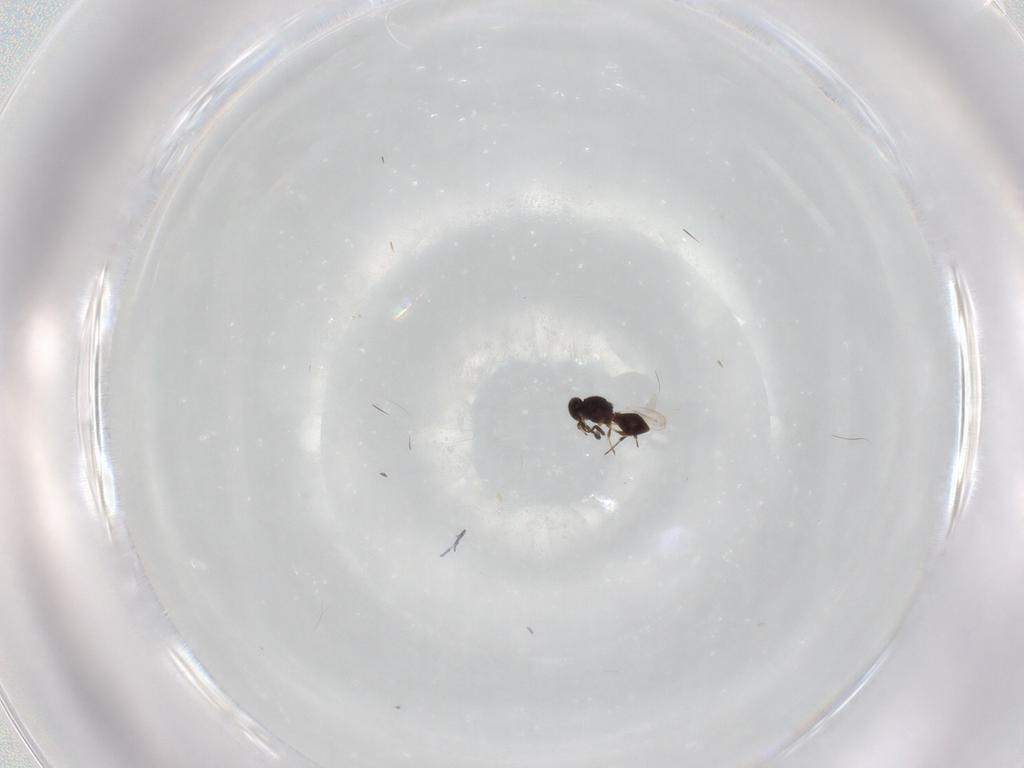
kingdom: Animalia
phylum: Arthropoda
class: Insecta
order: Hymenoptera
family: Platygastridae
